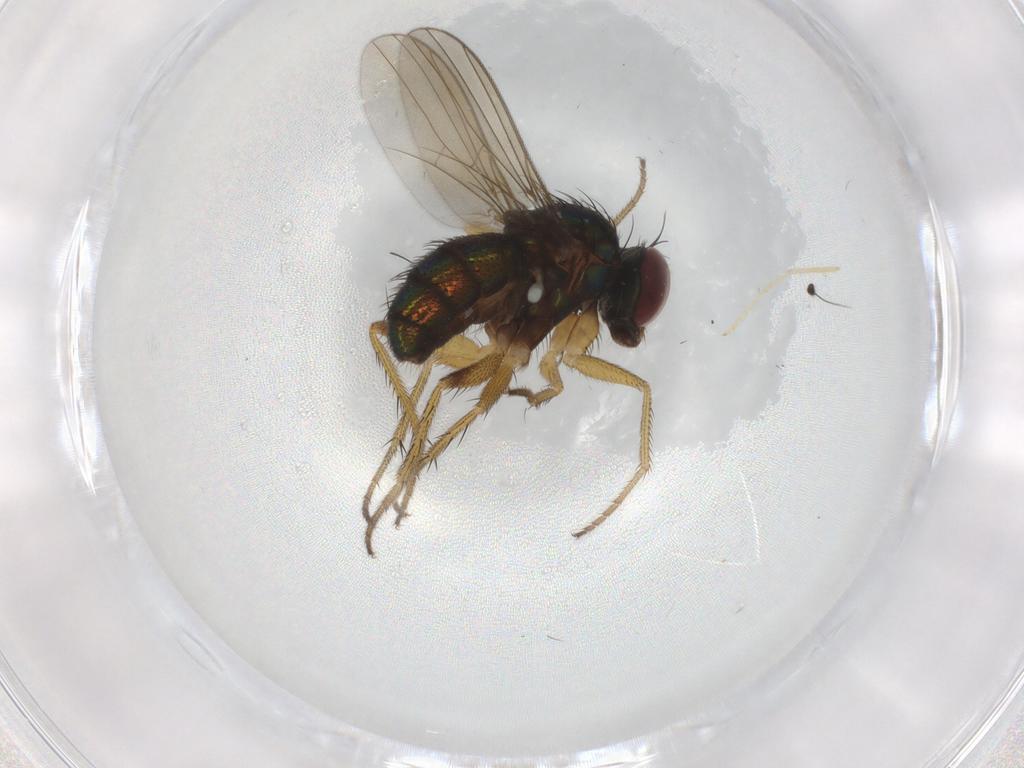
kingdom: Animalia
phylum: Arthropoda
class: Insecta
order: Diptera
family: Dolichopodidae
